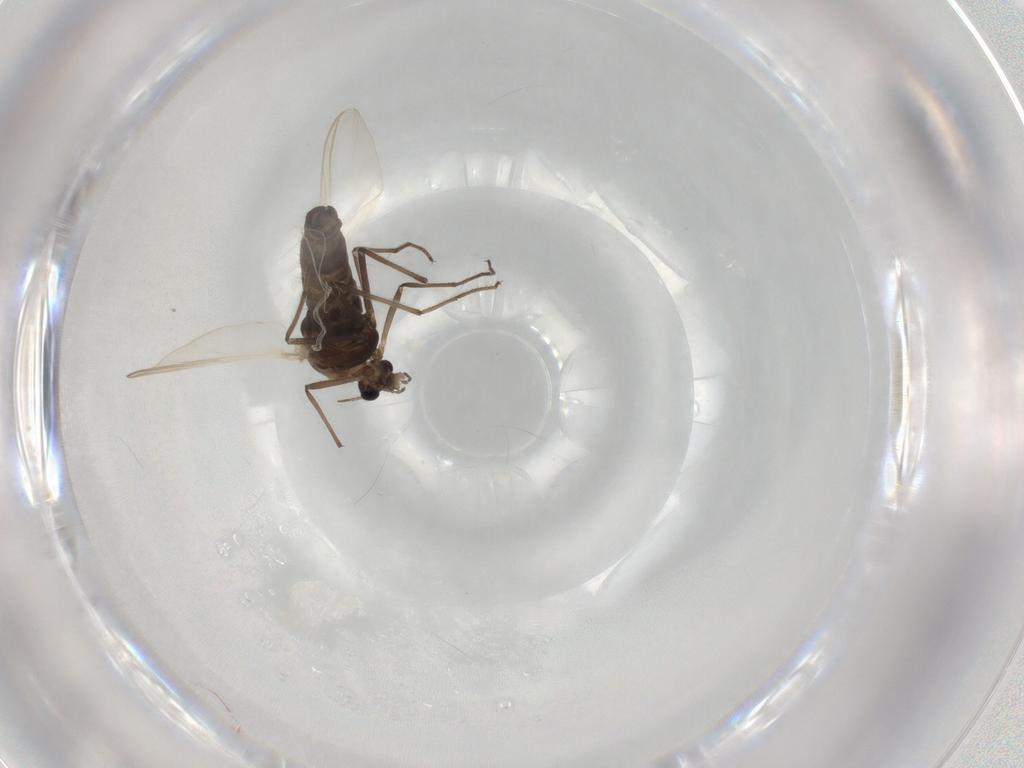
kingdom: Animalia
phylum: Arthropoda
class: Insecta
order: Diptera
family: Chironomidae
